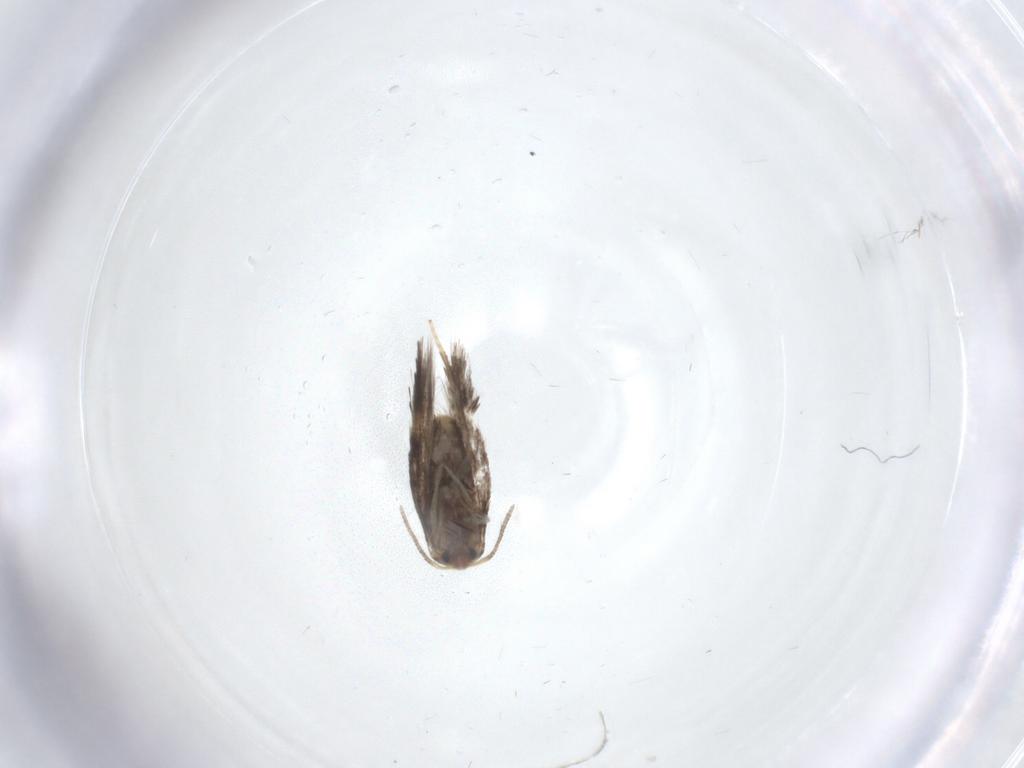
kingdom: Animalia
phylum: Arthropoda
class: Insecta
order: Lepidoptera
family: Nepticulidae
